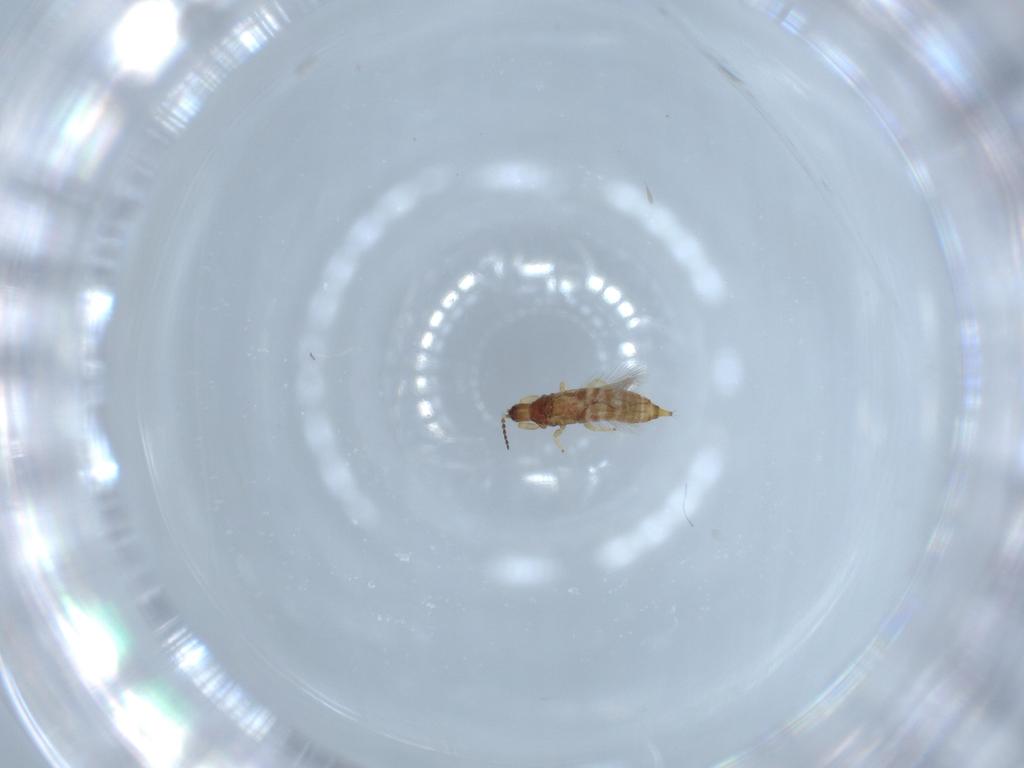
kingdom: Animalia
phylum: Arthropoda
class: Insecta
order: Thysanoptera
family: Phlaeothripidae
